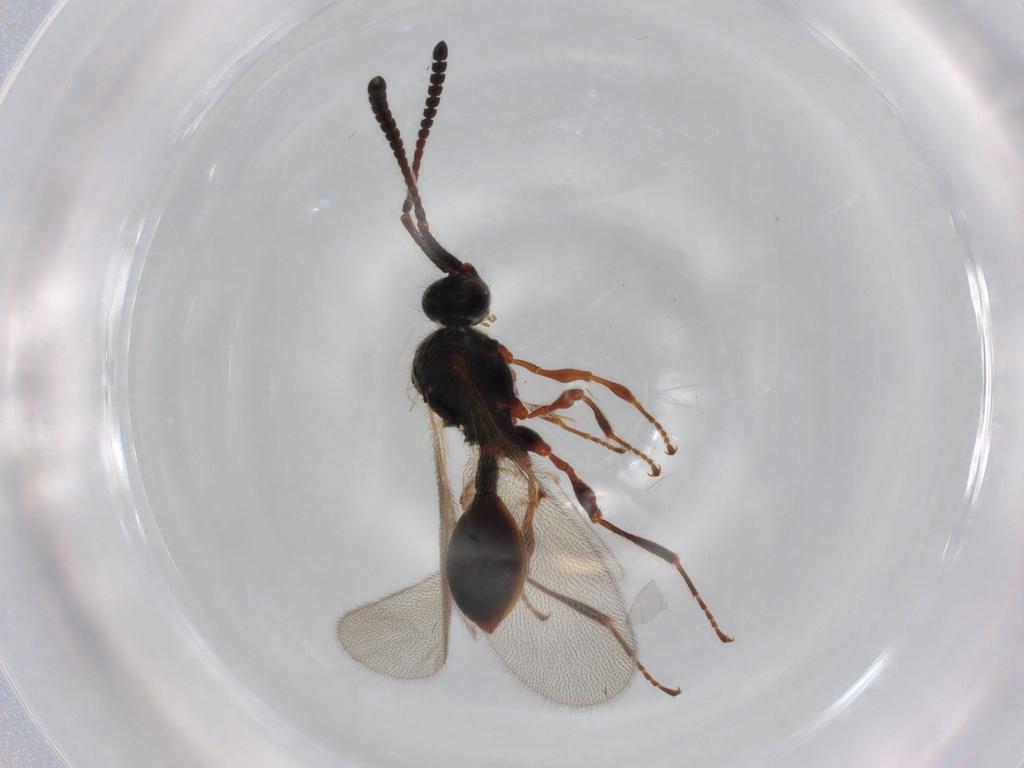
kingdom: Animalia
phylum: Arthropoda
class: Insecta
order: Hymenoptera
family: Diapriidae
